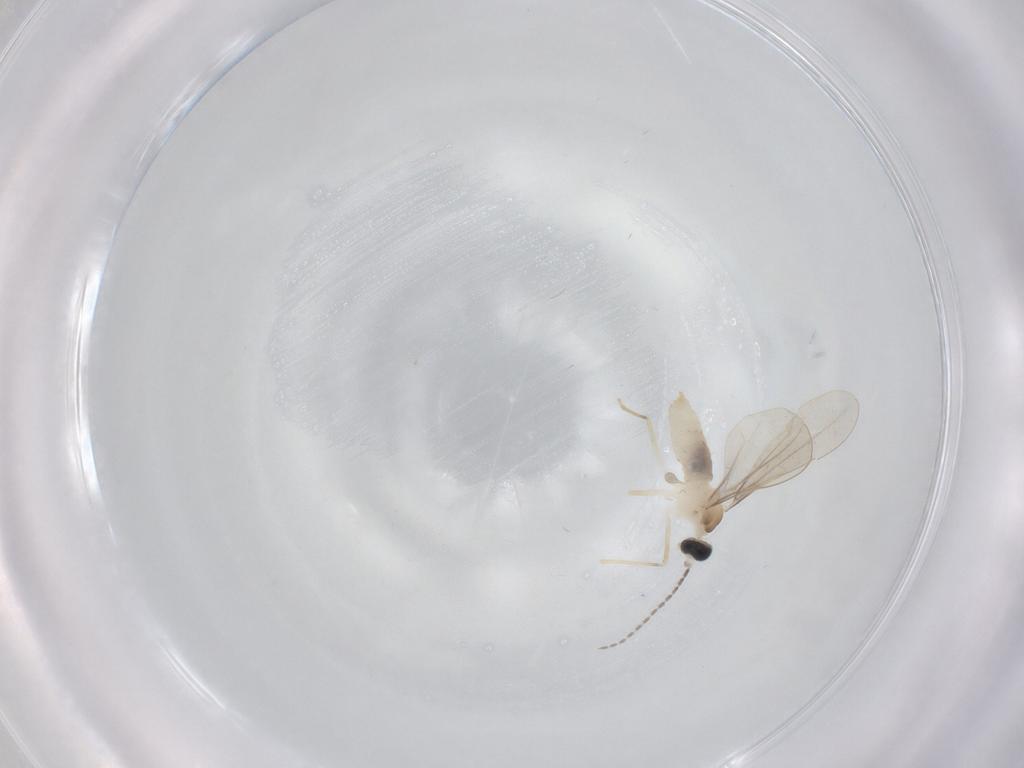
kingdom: Animalia
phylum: Arthropoda
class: Insecta
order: Diptera
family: Cecidomyiidae
